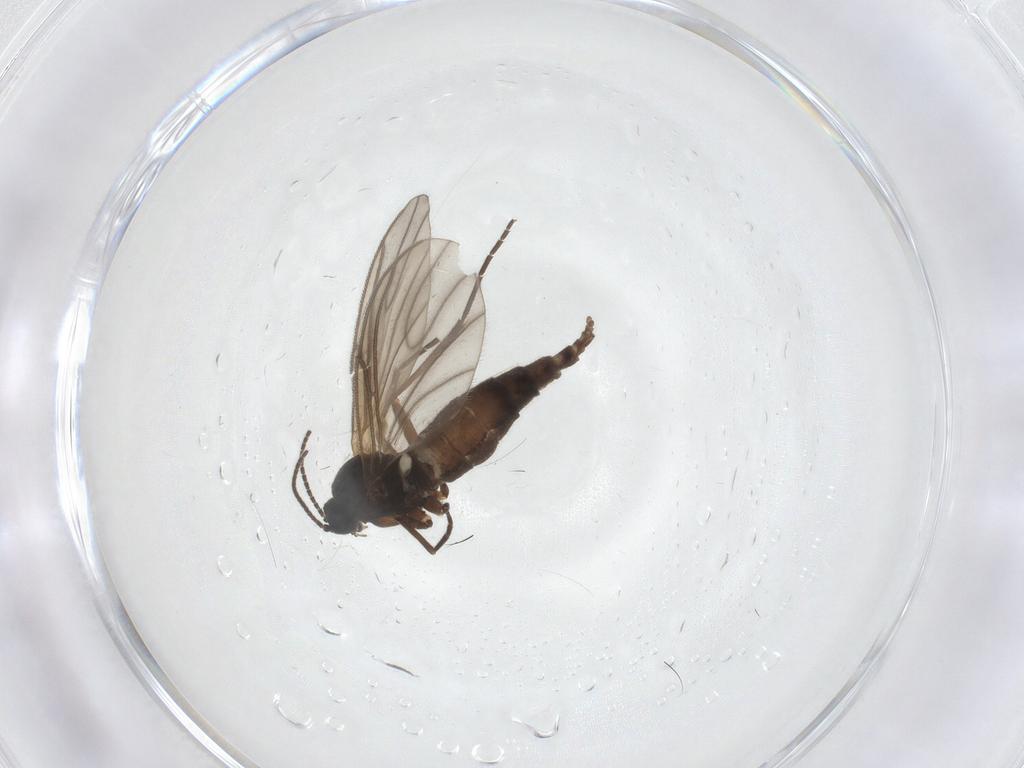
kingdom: Animalia
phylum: Arthropoda
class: Insecta
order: Diptera
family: Sciaridae
